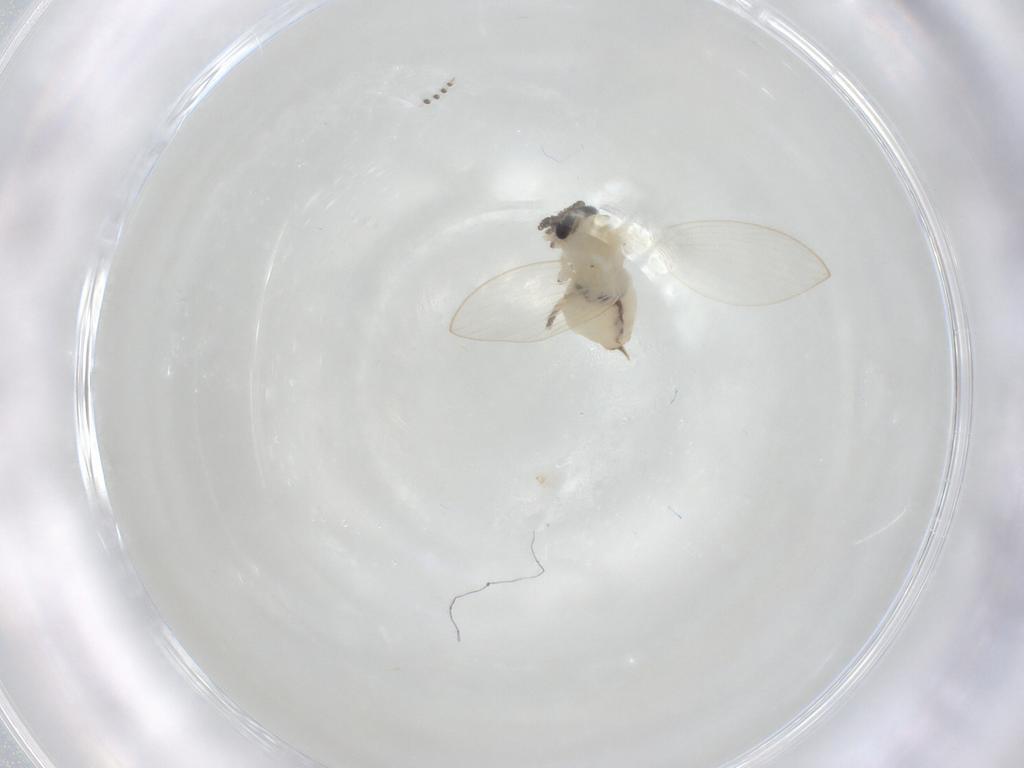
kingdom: Animalia
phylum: Arthropoda
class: Insecta
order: Diptera
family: Psychodidae
